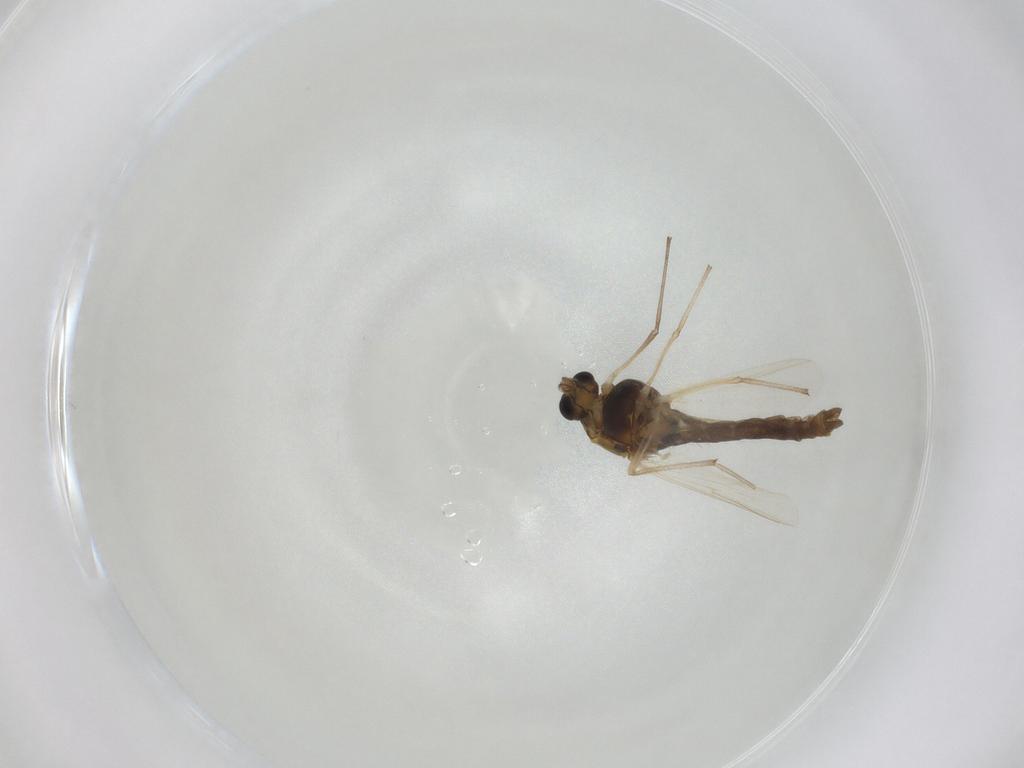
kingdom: Animalia
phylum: Arthropoda
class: Insecta
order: Diptera
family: Chironomidae
